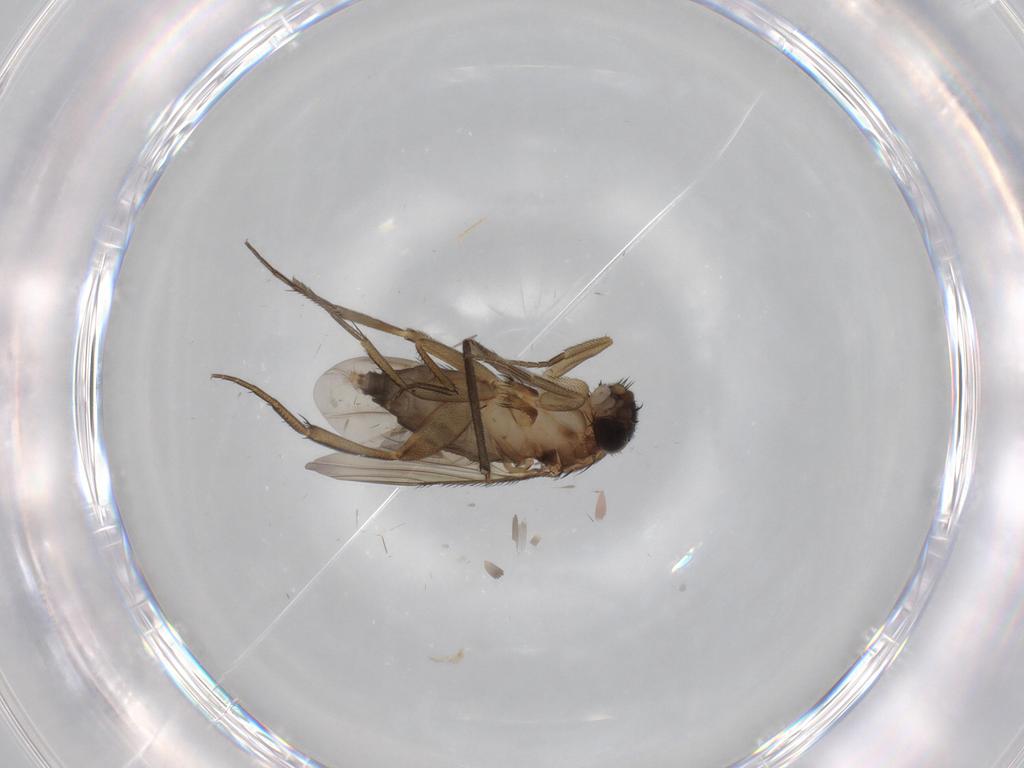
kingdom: Animalia
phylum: Arthropoda
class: Insecta
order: Diptera
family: Phoridae
